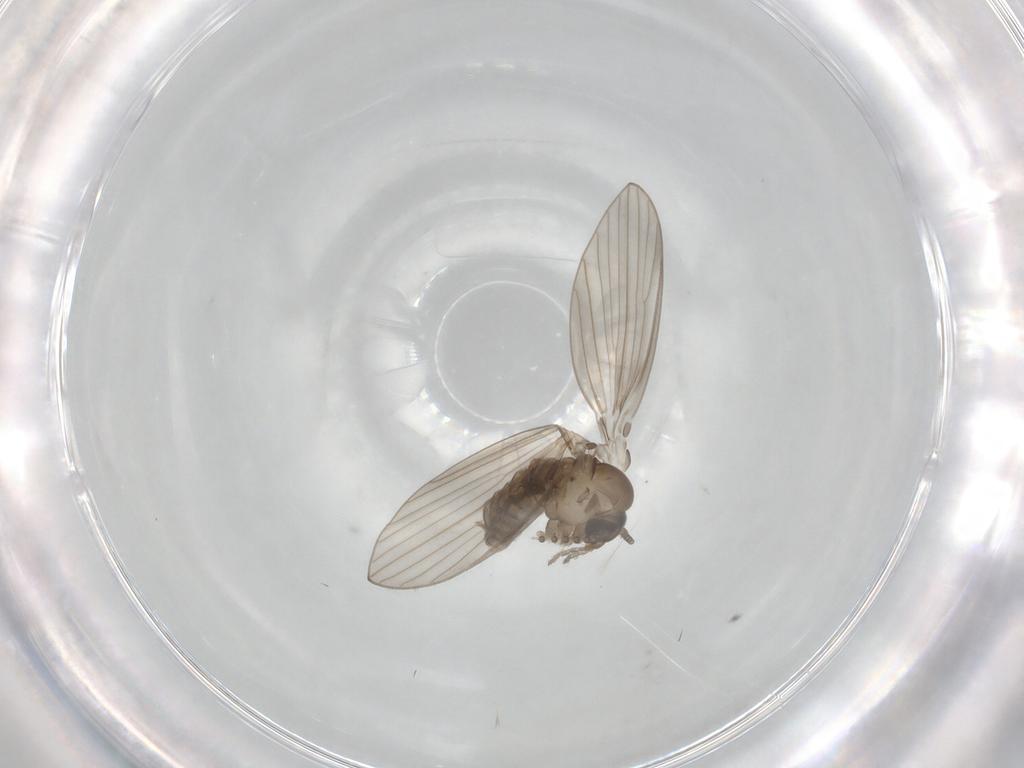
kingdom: Animalia
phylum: Arthropoda
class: Insecta
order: Diptera
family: Psychodidae
